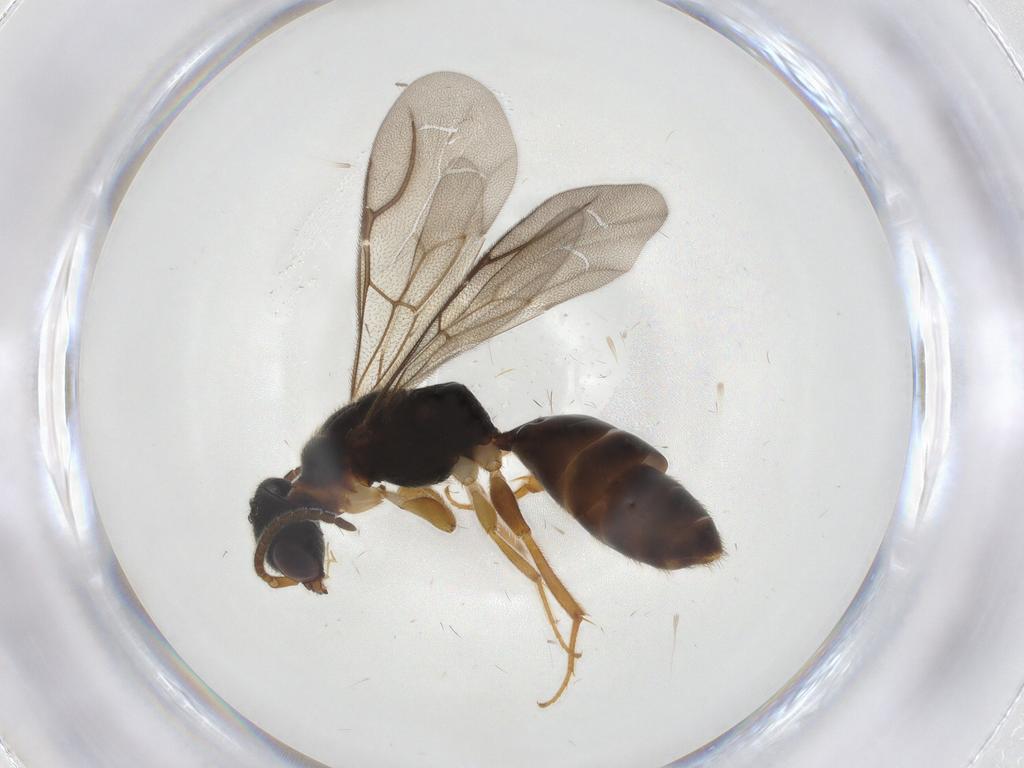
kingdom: Animalia
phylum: Arthropoda
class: Insecta
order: Hymenoptera
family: Bethylidae
